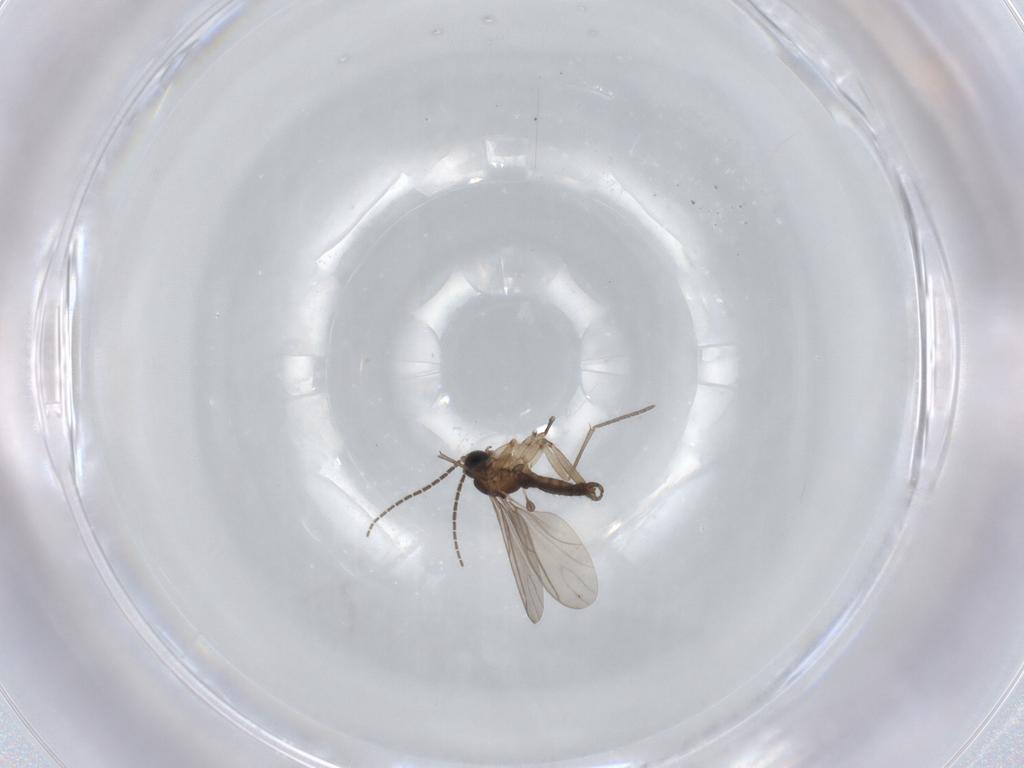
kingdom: Animalia
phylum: Arthropoda
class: Insecta
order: Diptera
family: Sciaridae
